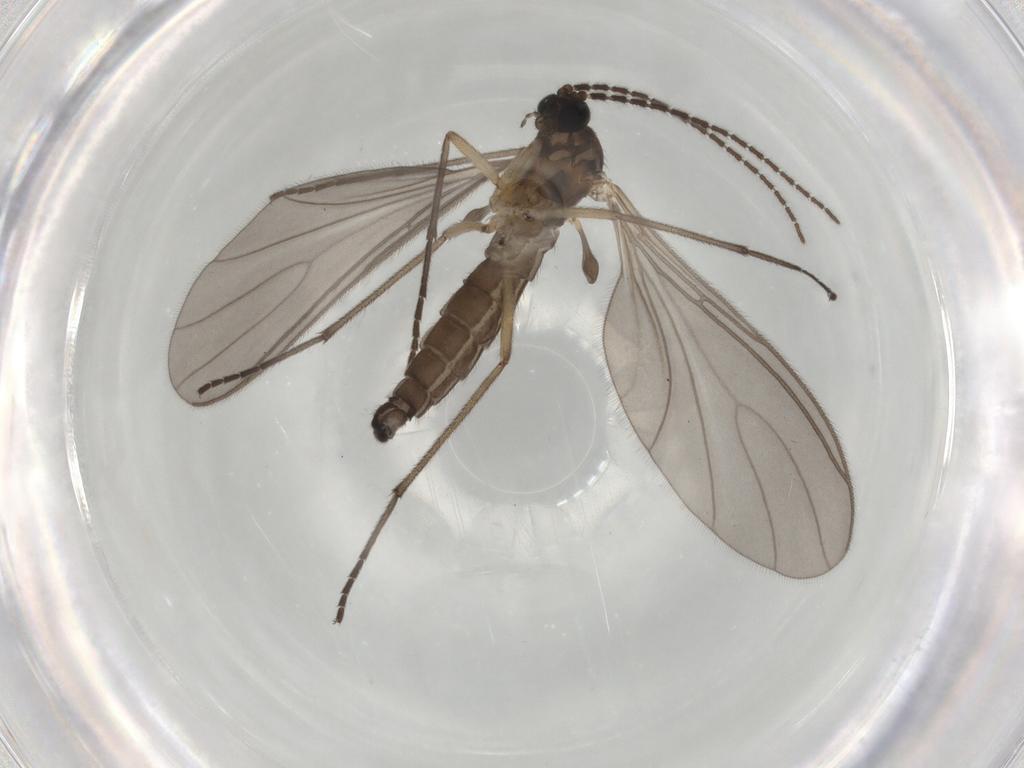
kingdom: Animalia
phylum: Arthropoda
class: Insecta
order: Diptera
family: Sciaridae
